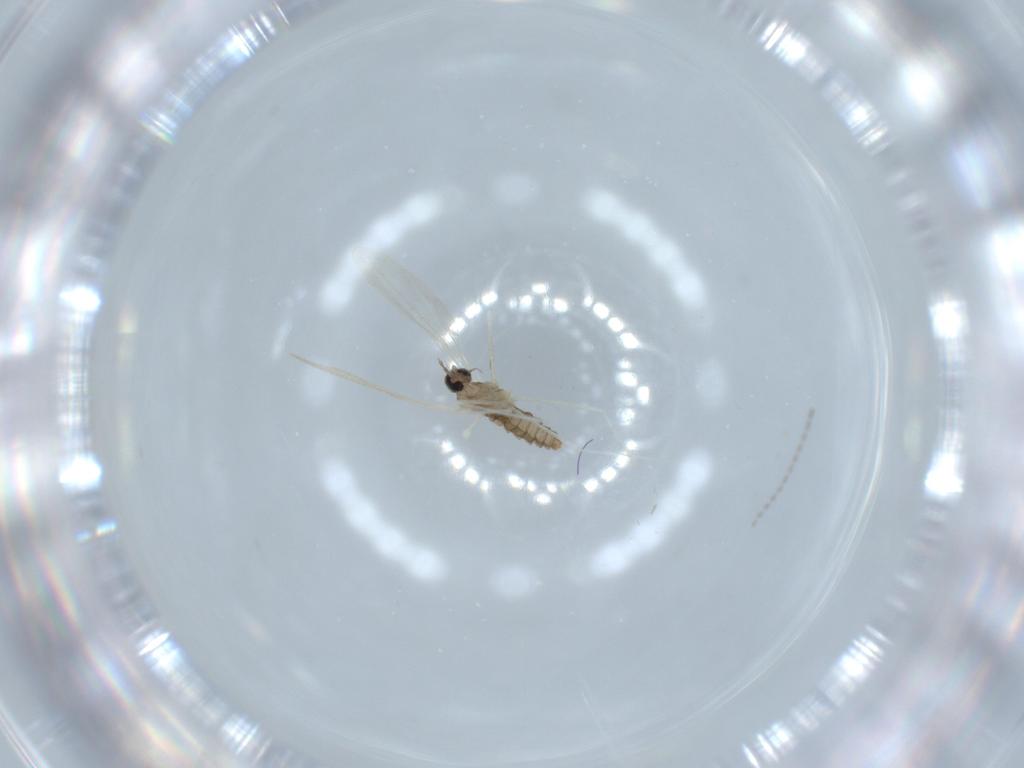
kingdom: Animalia
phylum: Arthropoda
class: Insecta
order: Diptera
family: Cecidomyiidae
